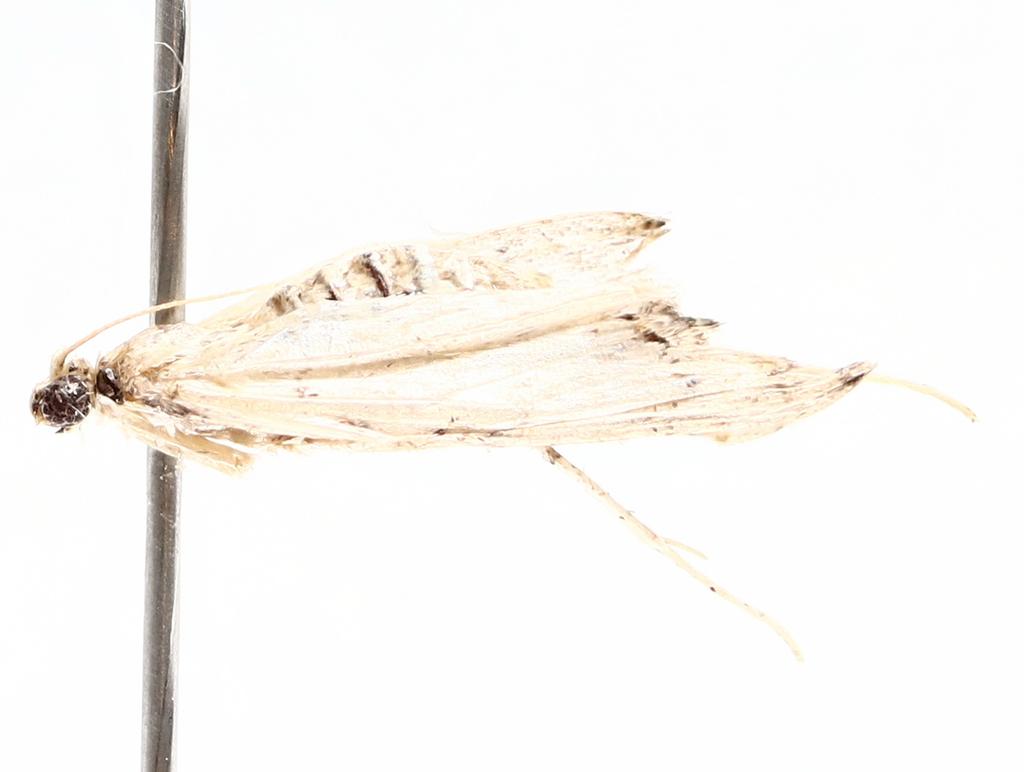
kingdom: Animalia
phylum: Arthropoda
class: Insecta
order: Diptera
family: Ceratopogonidae
